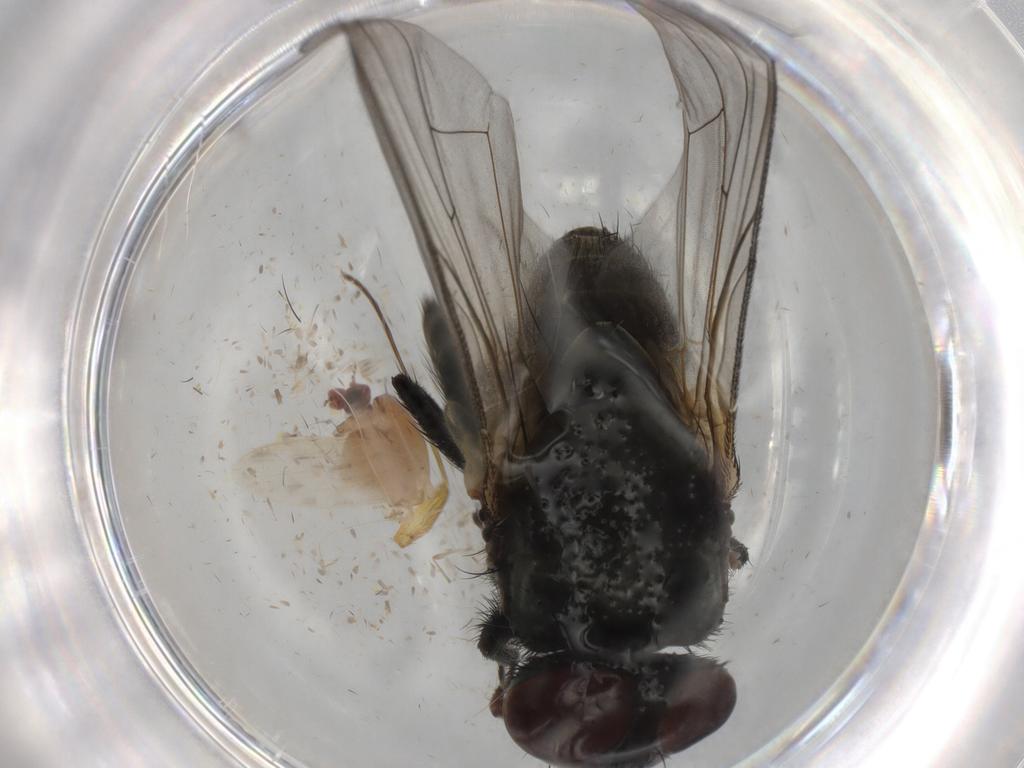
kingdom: Animalia
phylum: Arthropoda
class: Insecta
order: Diptera
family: Chaoboridae
